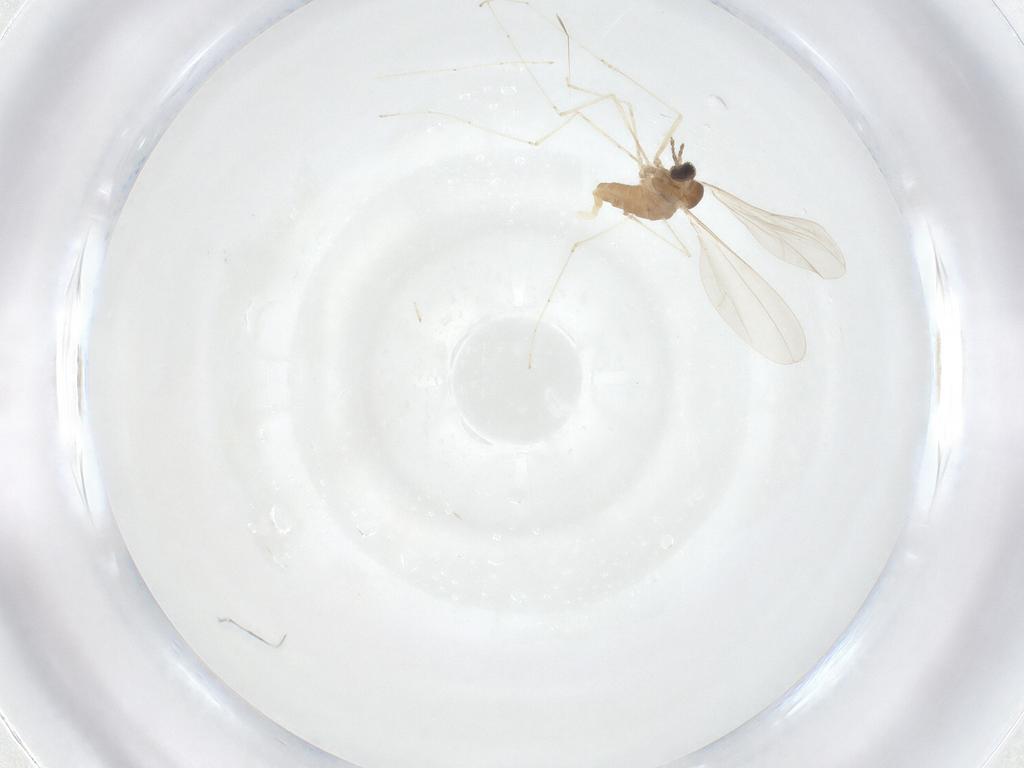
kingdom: Animalia
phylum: Arthropoda
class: Insecta
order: Diptera
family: Cecidomyiidae
